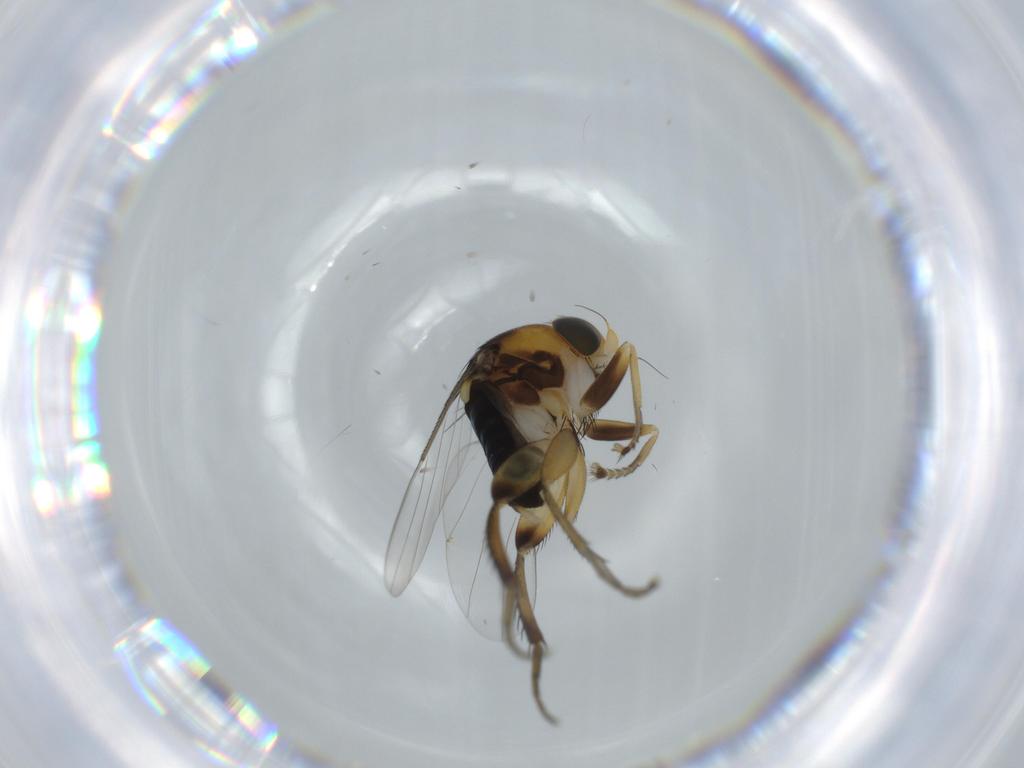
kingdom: Animalia
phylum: Arthropoda
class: Insecta
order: Diptera
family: Phoridae
